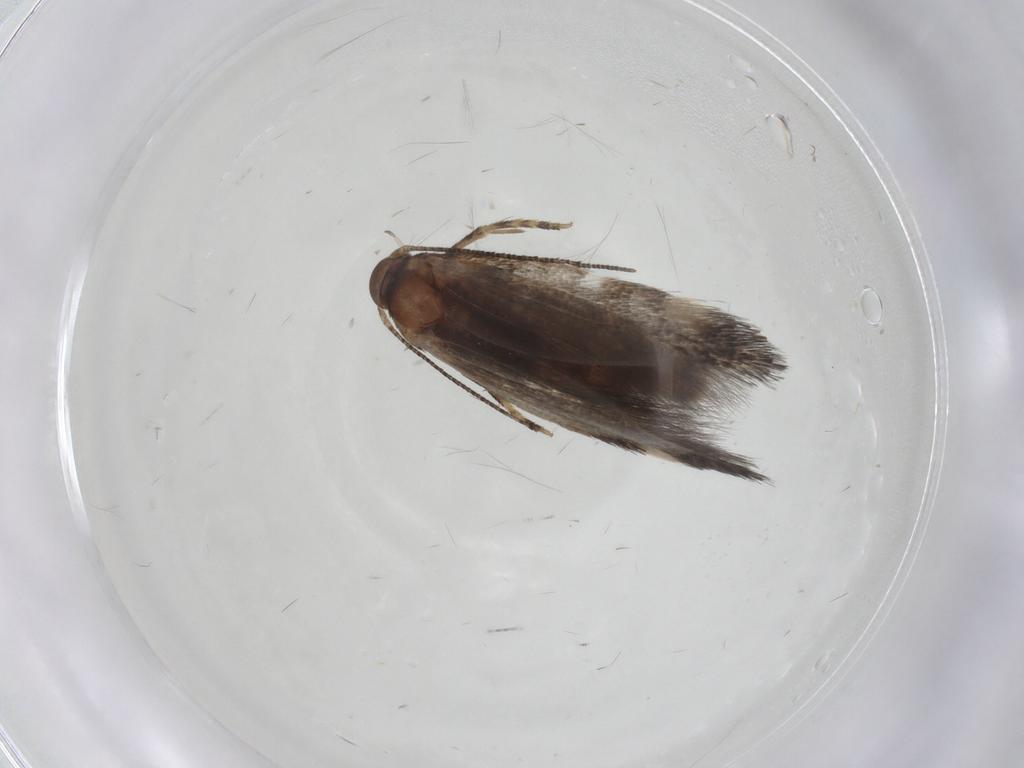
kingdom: Animalia
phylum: Arthropoda
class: Insecta
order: Lepidoptera
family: Elachistidae
